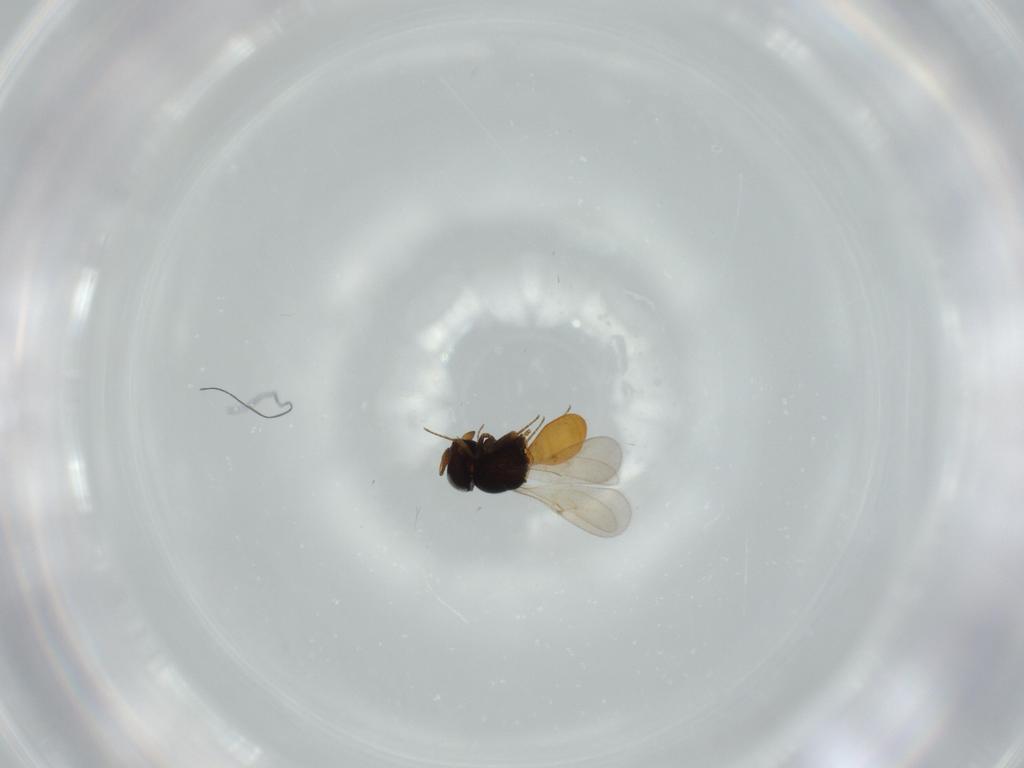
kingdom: Animalia
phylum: Arthropoda
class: Insecta
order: Hymenoptera
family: Scelionidae
